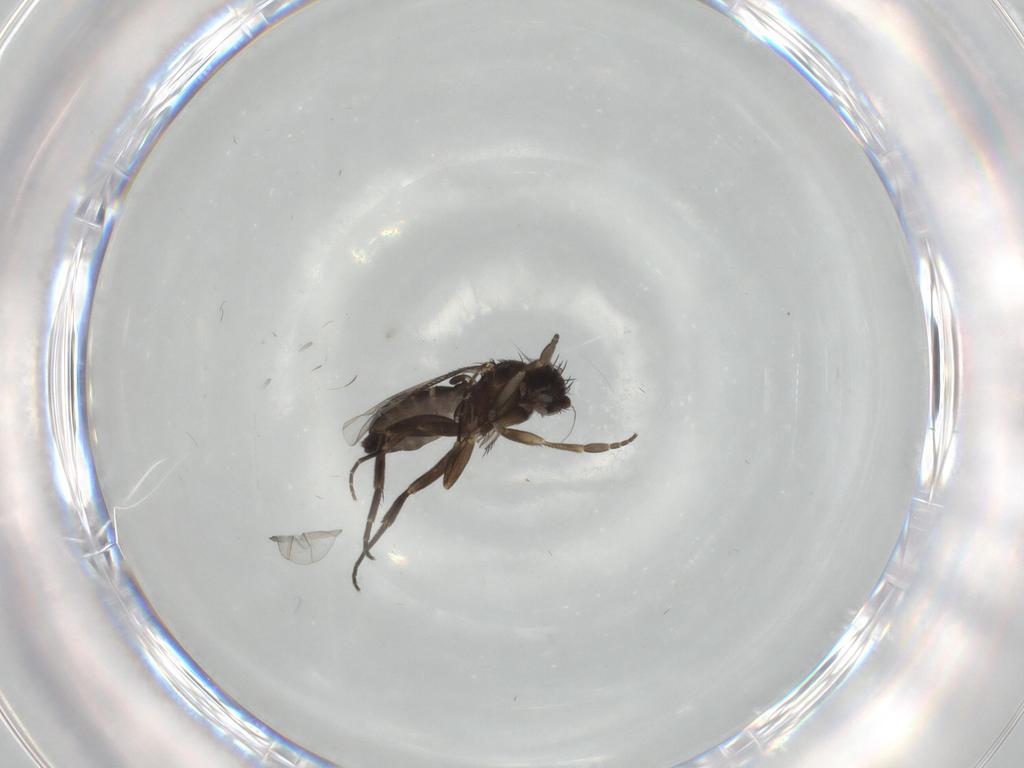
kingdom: Animalia
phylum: Arthropoda
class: Insecta
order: Diptera
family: Phoridae
